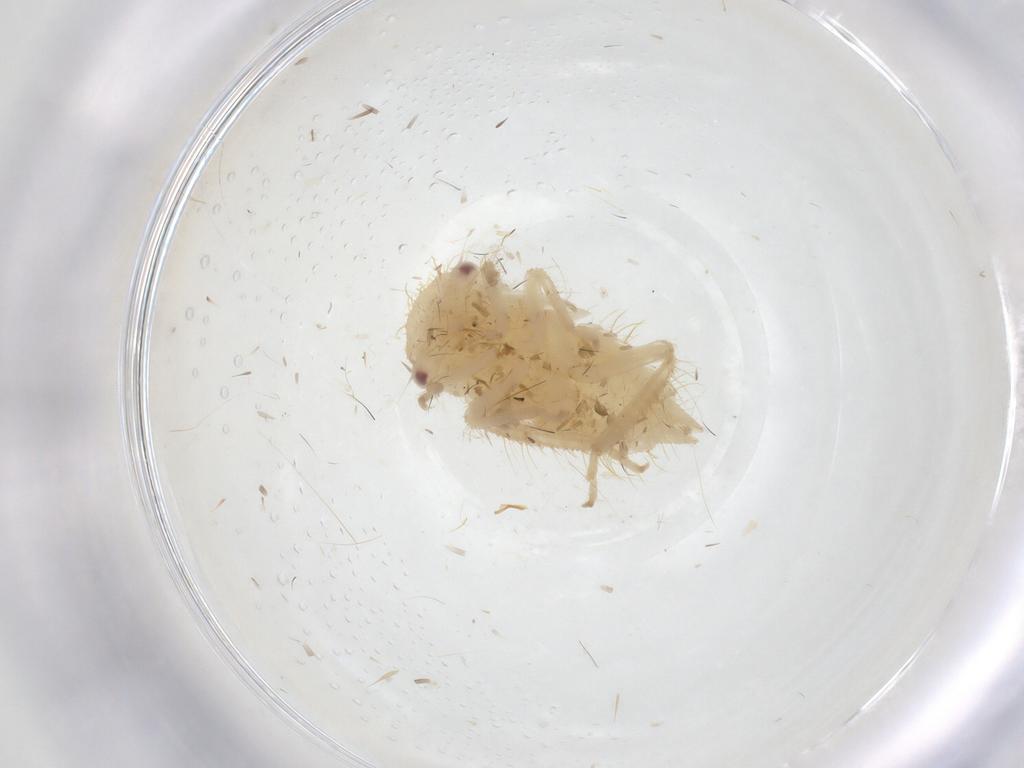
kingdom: Animalia
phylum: Arthropoda
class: Insecta
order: Hemiptera
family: Cicadellidae
